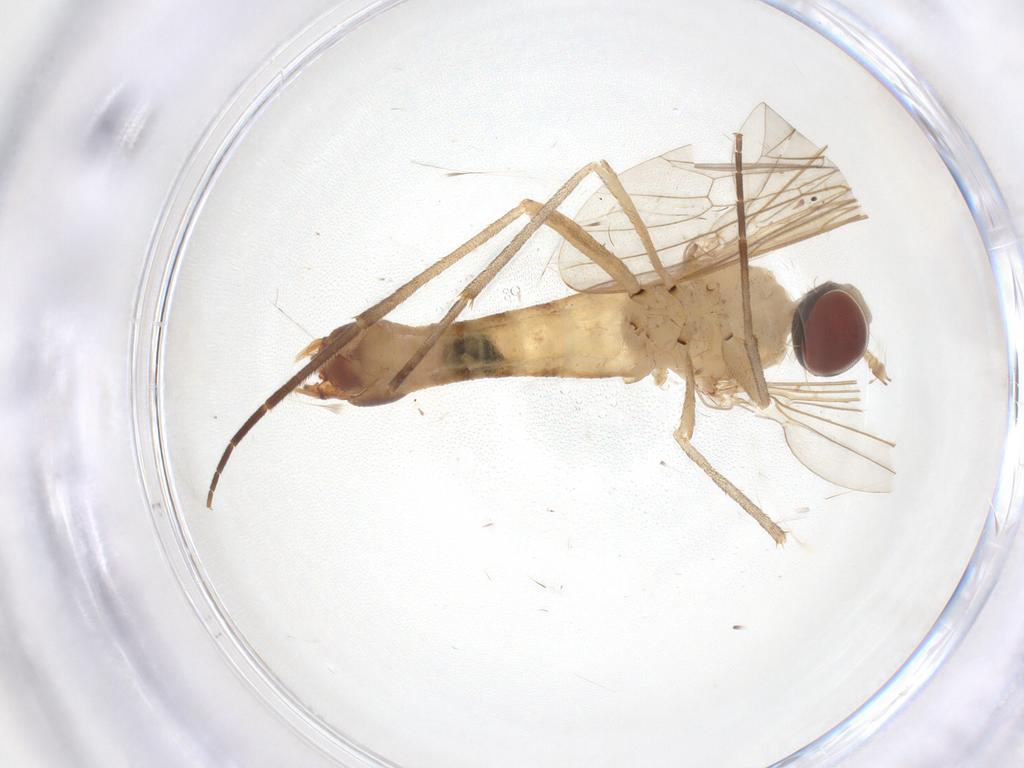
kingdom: Animalia
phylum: Arthropoda
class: Insecta
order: Diptera
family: Apsilocephalidae
